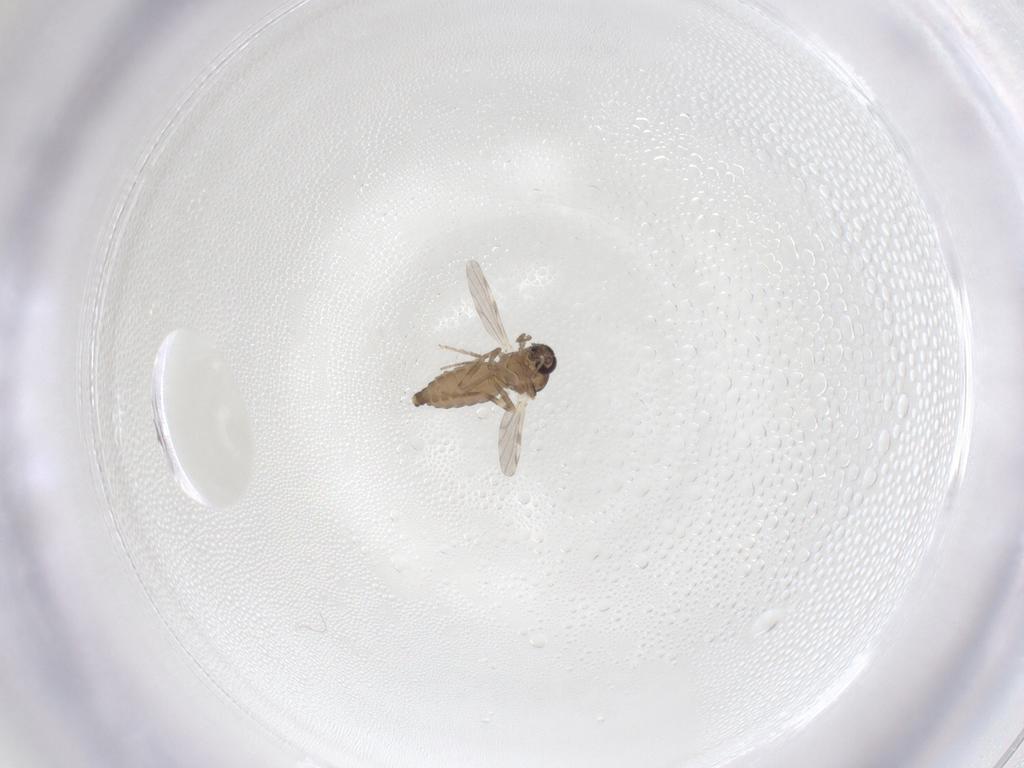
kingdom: Animalia
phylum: Arthropoda
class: Insecta
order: Diptera
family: Ceratopogonidae
